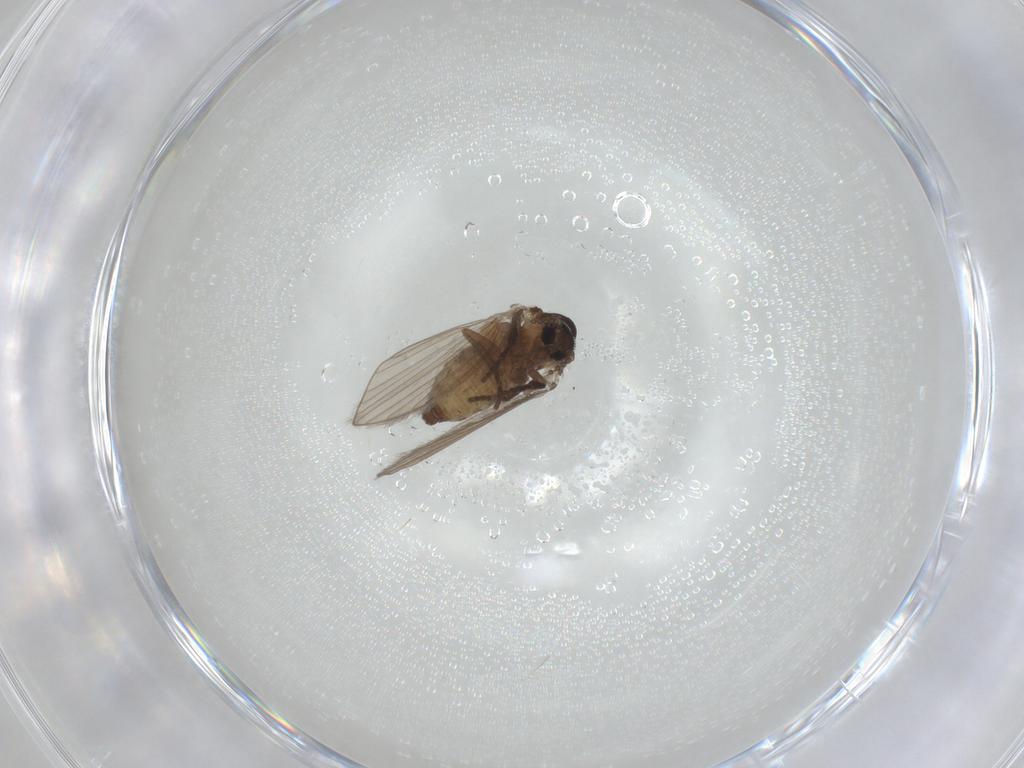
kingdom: Animalia
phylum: Arthropoda
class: Insecta
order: Diptera
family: Psychodidae
